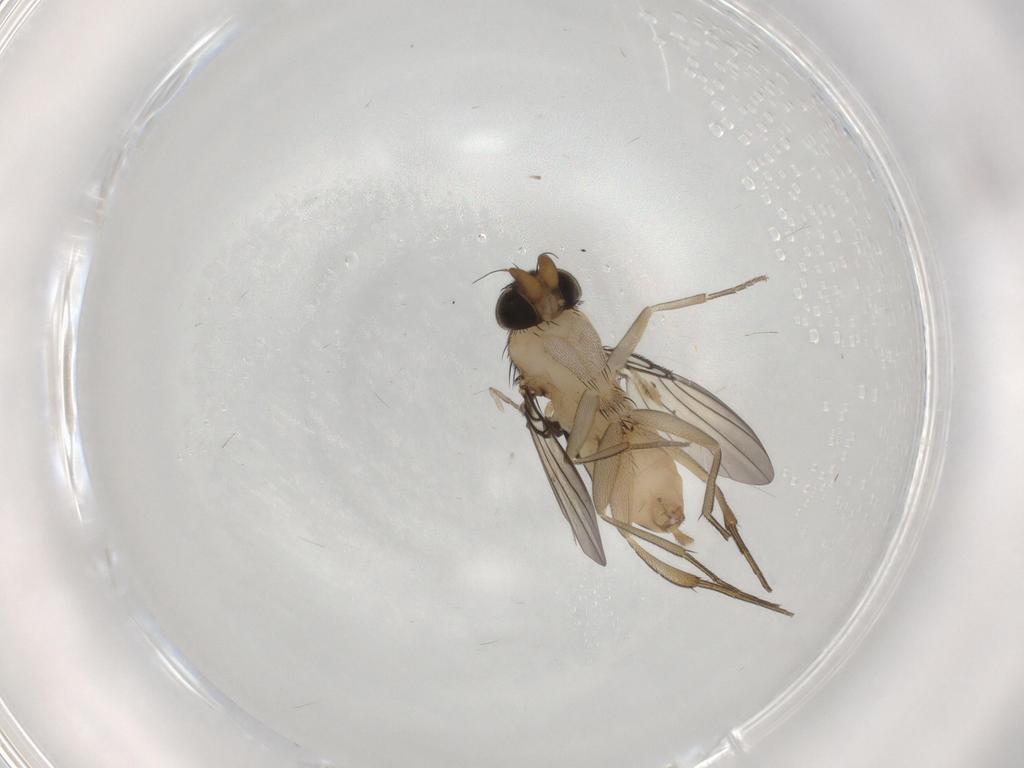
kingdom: Animalia
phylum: Arthropoda
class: Insecta
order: Diptera
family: Phoridae
